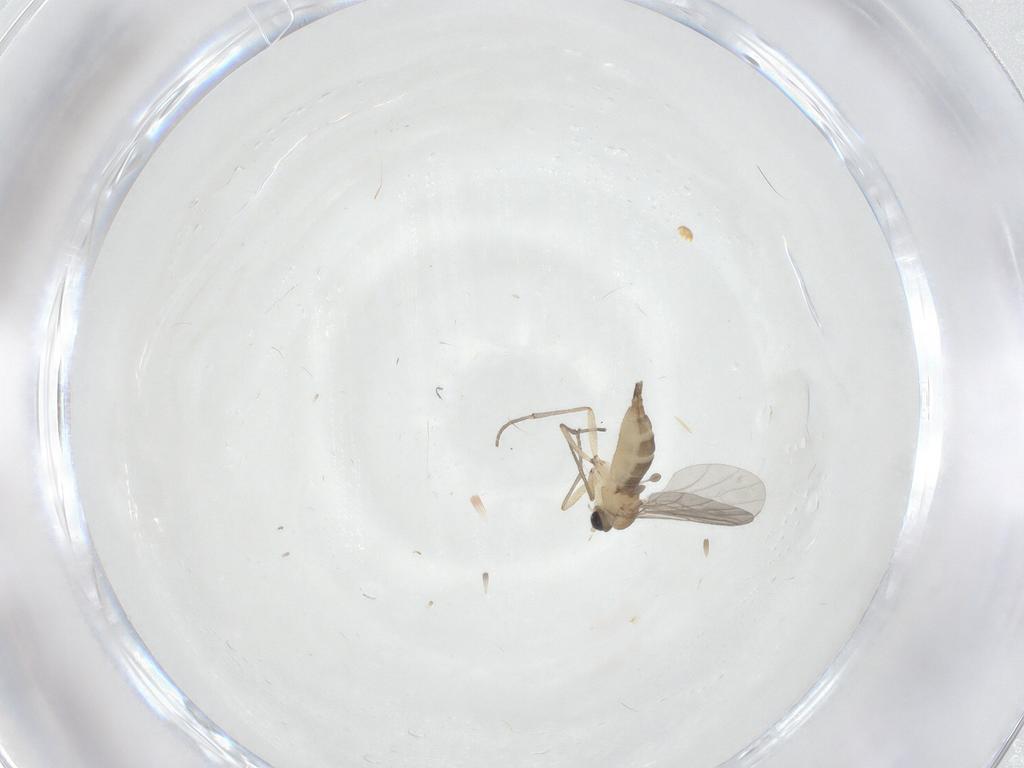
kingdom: Animalia
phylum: Arthropoda
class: Insecta
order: Diptera
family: Sciaridae
